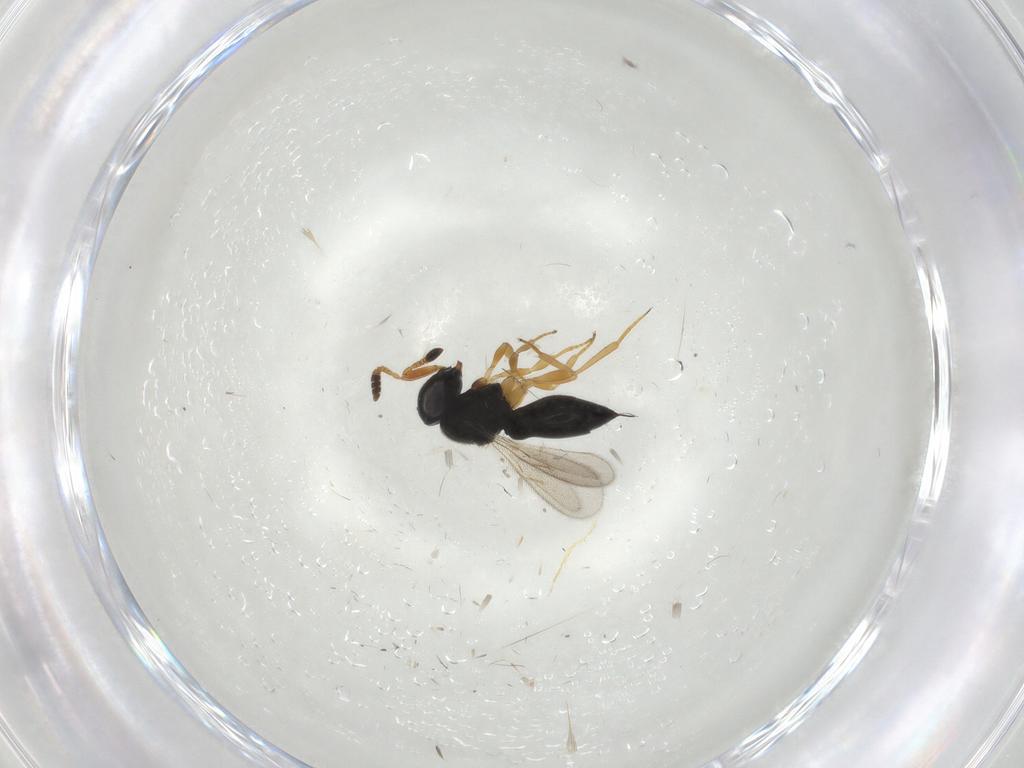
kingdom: Animalia
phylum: Arthropoda
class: Insecta
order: Hymenoptera
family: Scelionidae
